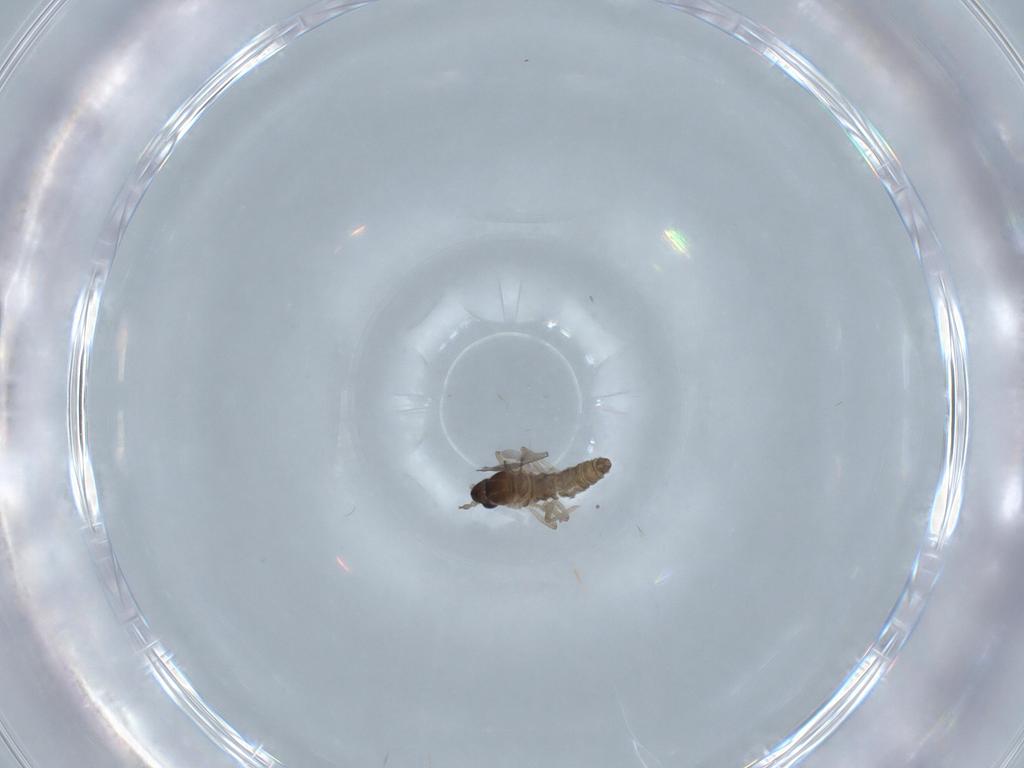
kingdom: Animalia
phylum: Arthropoda
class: Insecta
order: Diptera
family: Cecidomyiidae
